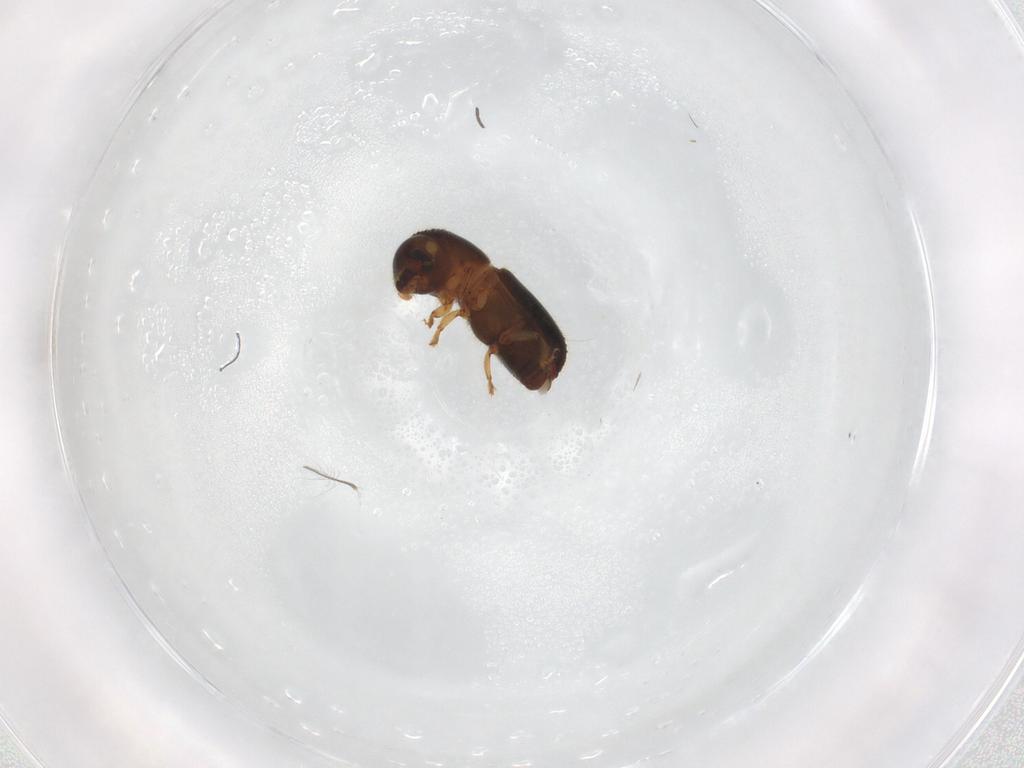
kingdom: Animalia
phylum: Arthropoda
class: Insecta
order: Coleoptera
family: Curculionidae
